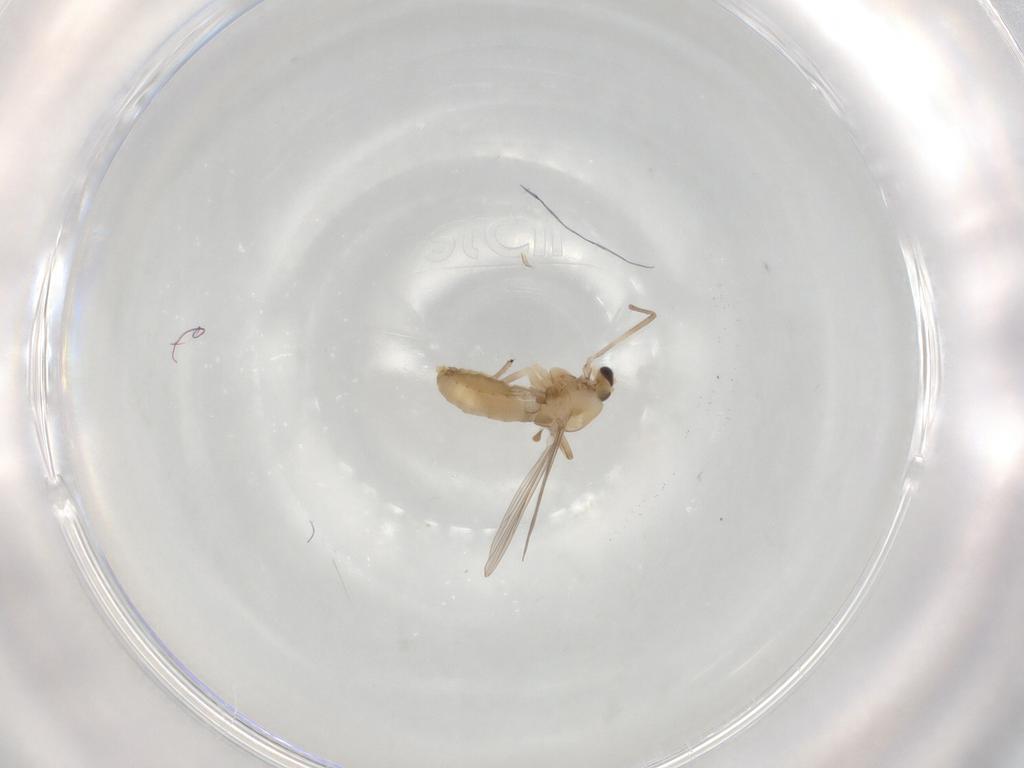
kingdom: Animalia
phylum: Arthropoda
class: Insecta
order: Diptera
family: Chironomidae
